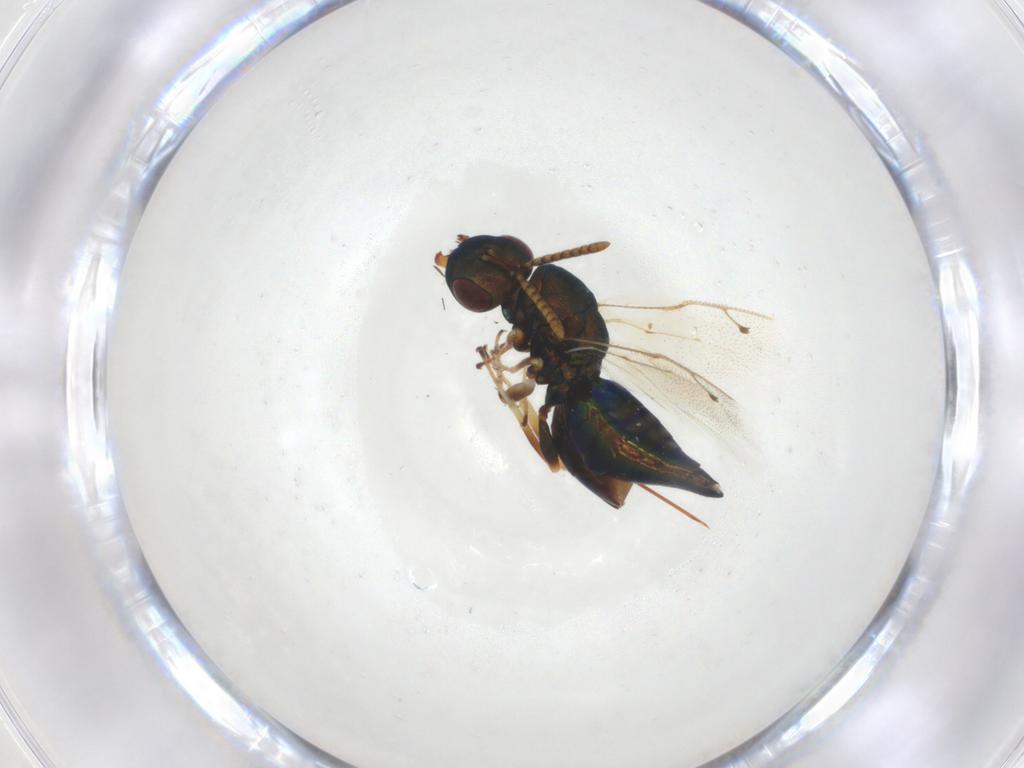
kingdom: Animalia
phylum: Arthropoda
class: Insecta
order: Hymenoptera
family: Pteromalidae
